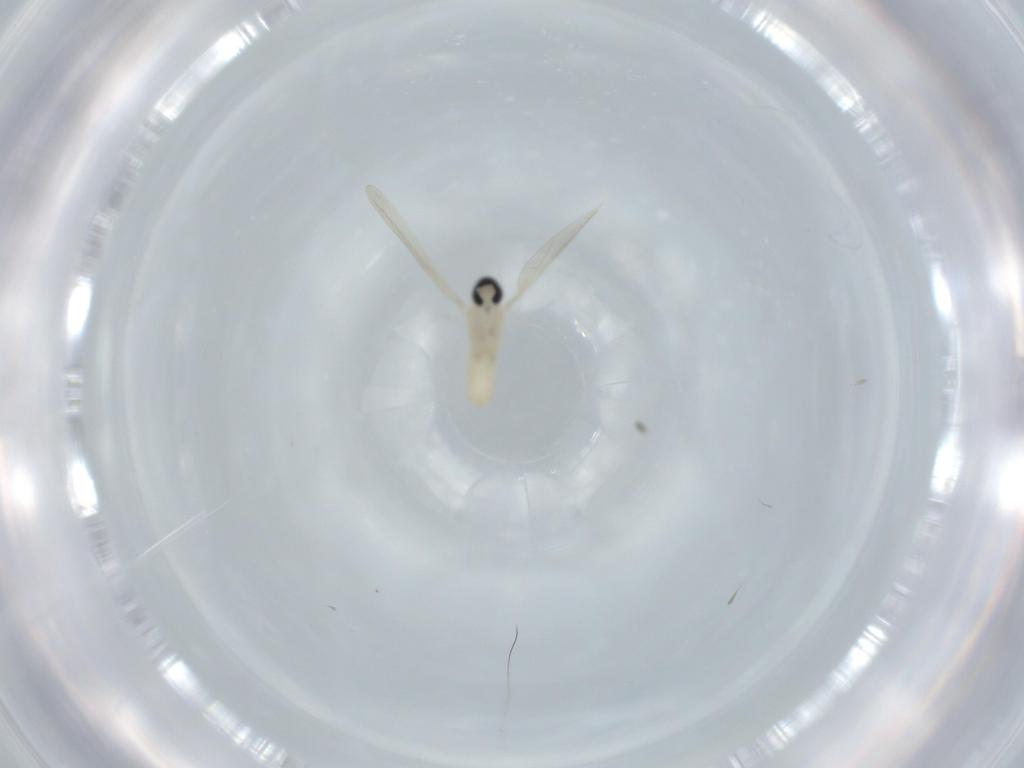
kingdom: Animalia
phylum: Arthropoda
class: Insecta
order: Diptera
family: Cecidomyiidae
